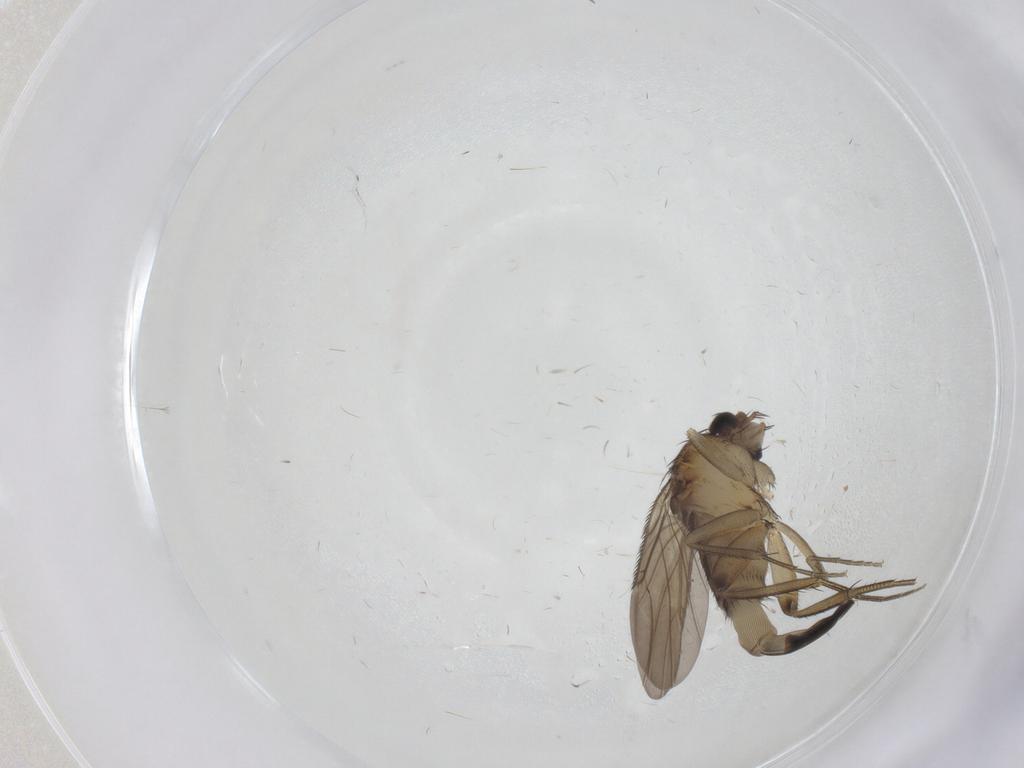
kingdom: Animalia
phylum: Arthropoda
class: Insecta
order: Diptera
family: Phoridae
